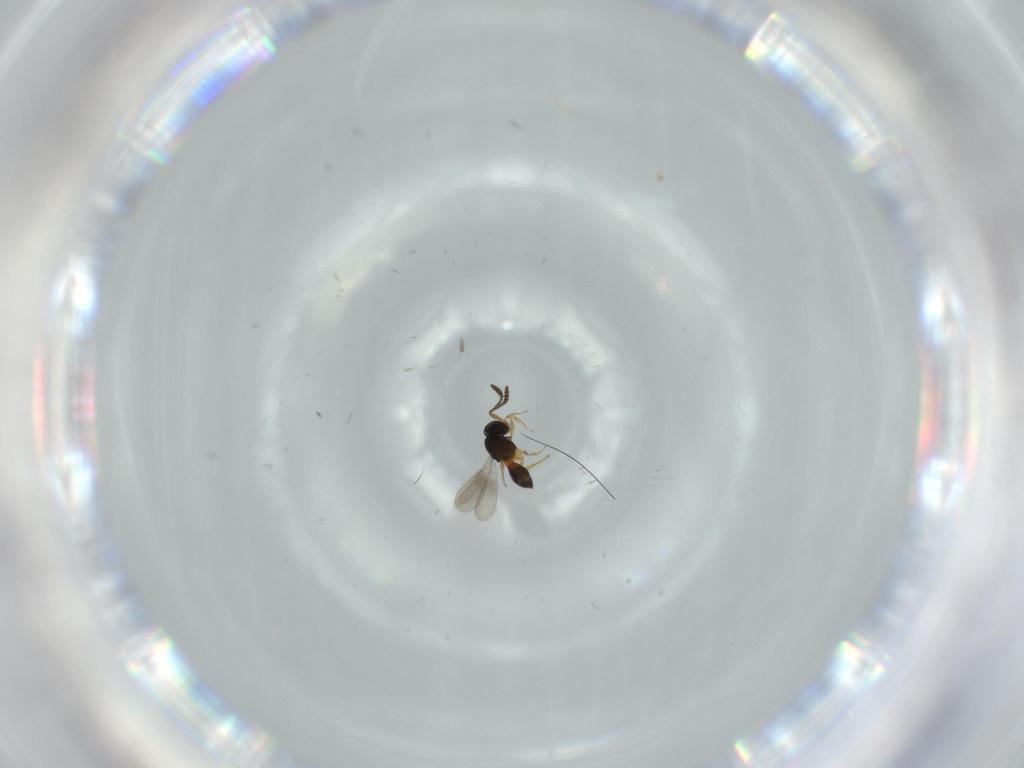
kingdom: Animalia
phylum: Arthropoda
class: Insecta
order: Hymenoptera
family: Scelionidae
